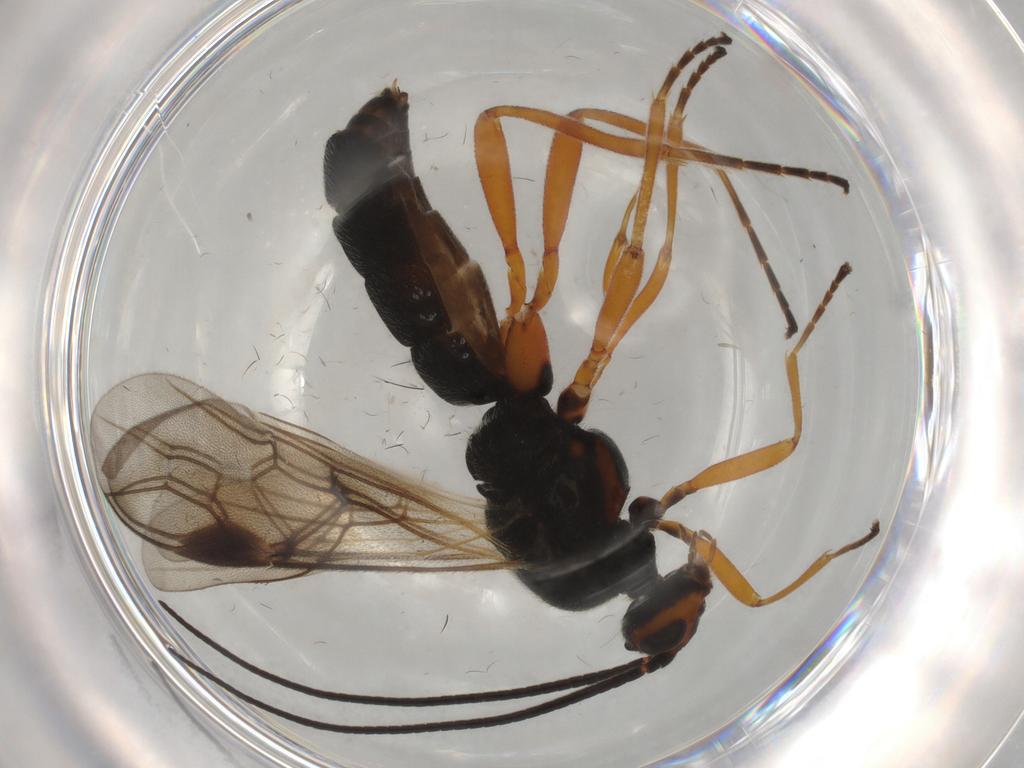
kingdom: Animalia
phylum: Arthropoda
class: Insecta
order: Hymenoptera
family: Braconidae
